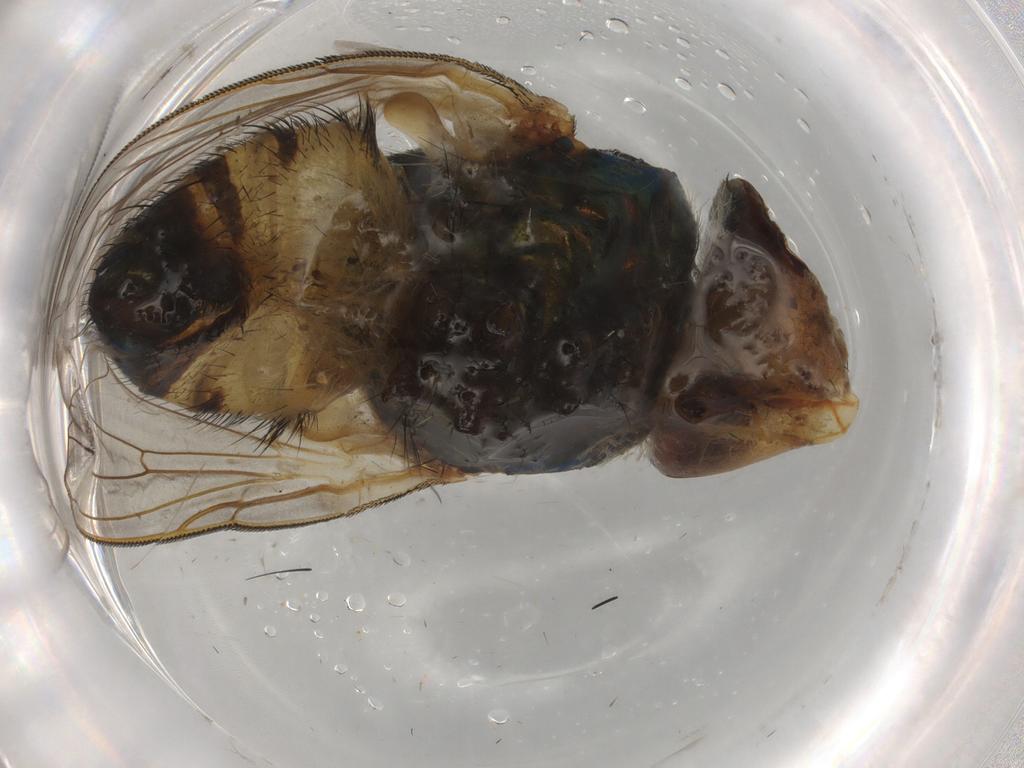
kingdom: Animalia
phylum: Arthropoda
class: Insecta
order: Diptera
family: Calliphoridae
